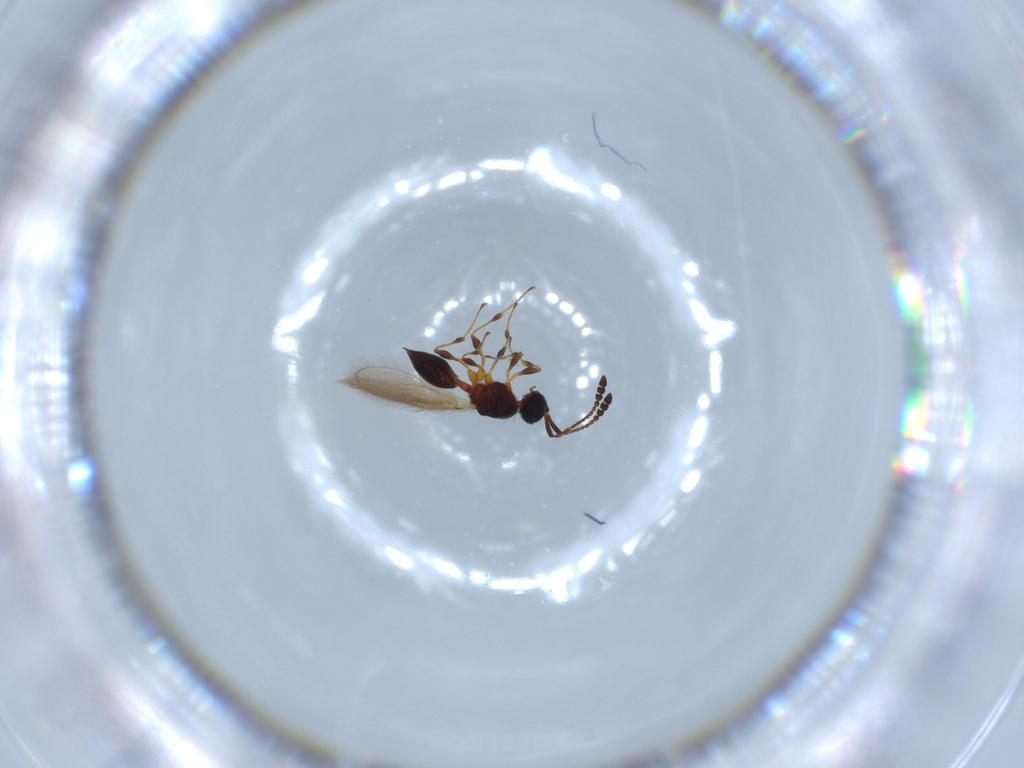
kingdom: Animalia
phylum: Arthropoda
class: Insecta
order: Hymenoptera
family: Diapriidae
